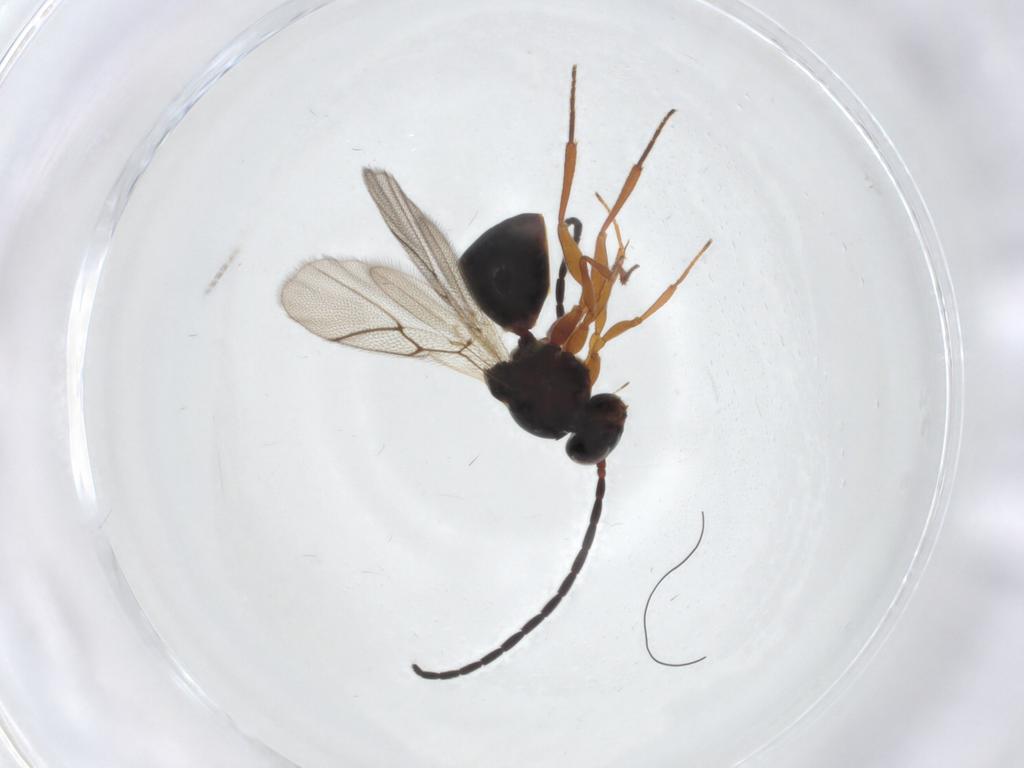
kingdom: Animalia
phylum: Arthropoda
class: Insecta
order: Hymenoptera
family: Figitidae
